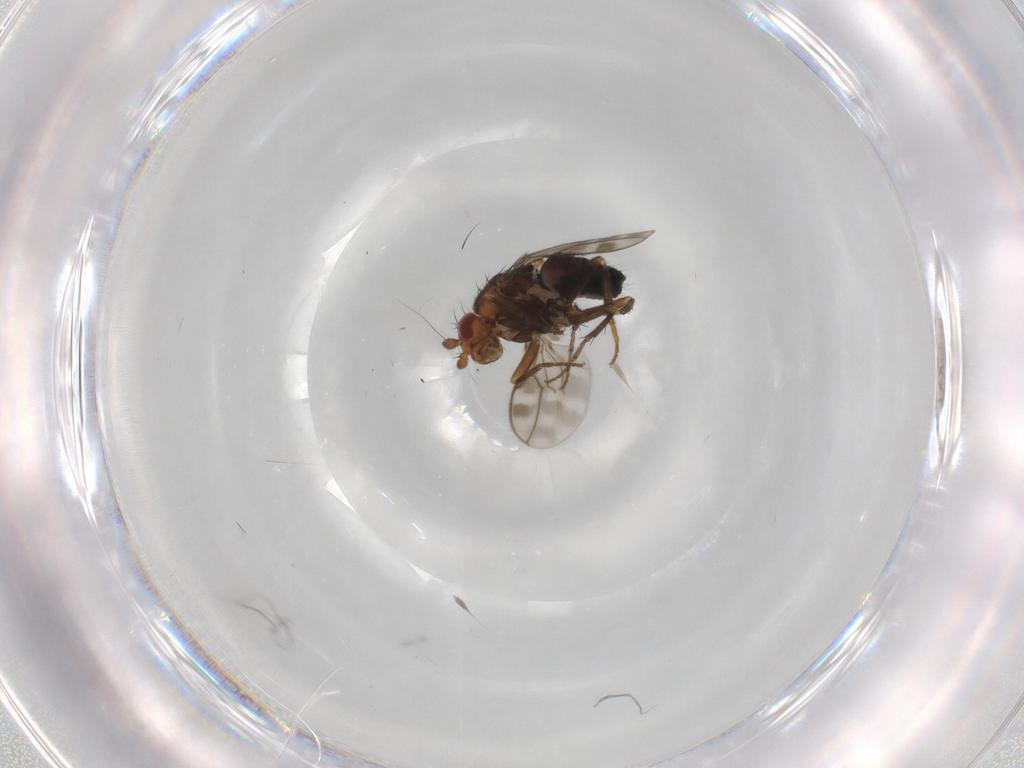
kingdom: Animalia
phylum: Arthropoda
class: Insecta
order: Diptera
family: Sphaeroceridae
